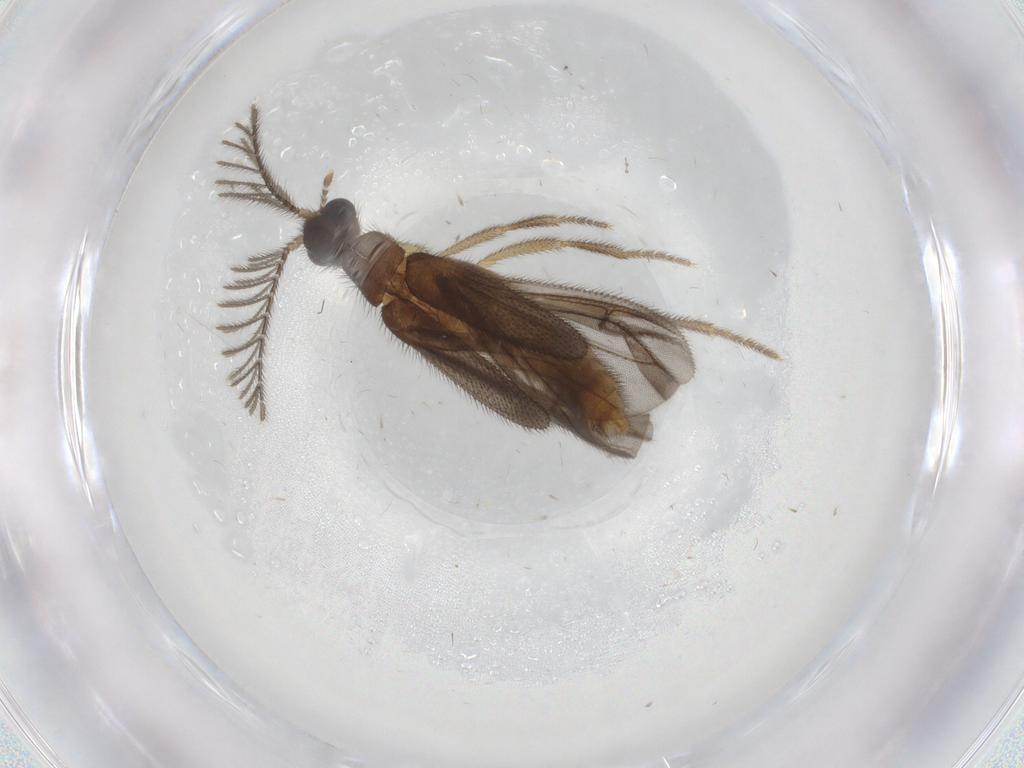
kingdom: Animalia
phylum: Arthropoda
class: Insecta
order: Coleoptera
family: Phengodidae
